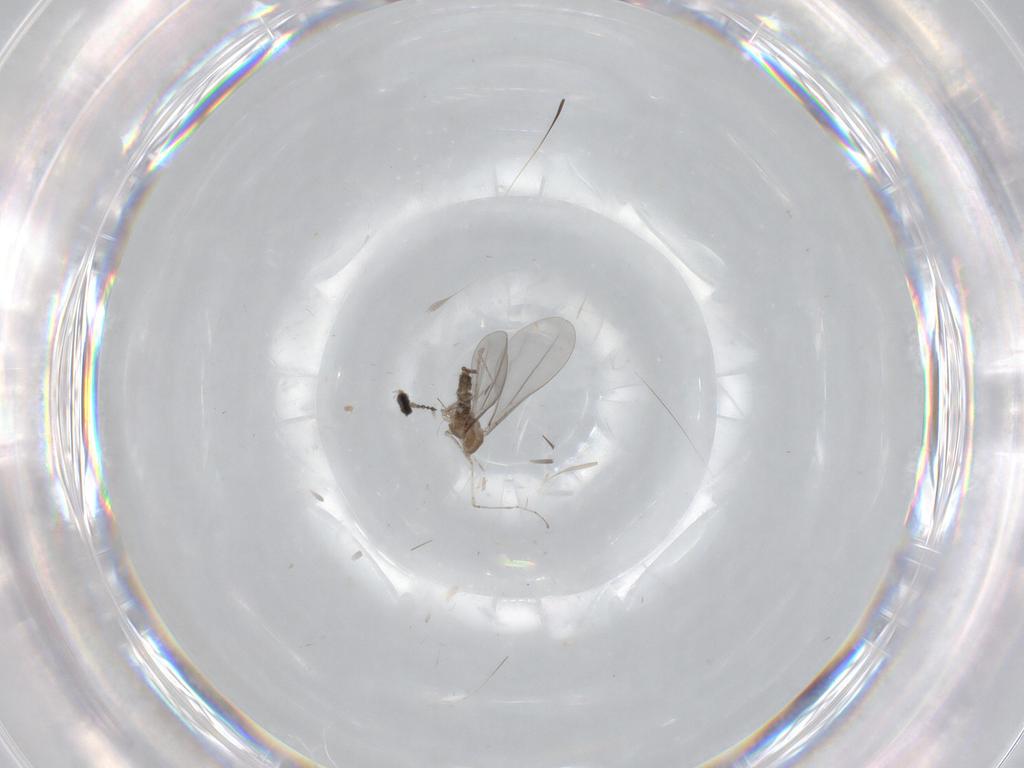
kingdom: Animalia
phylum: Arthropoda
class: Insecta
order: Diptera
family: Cecidomyiidae
